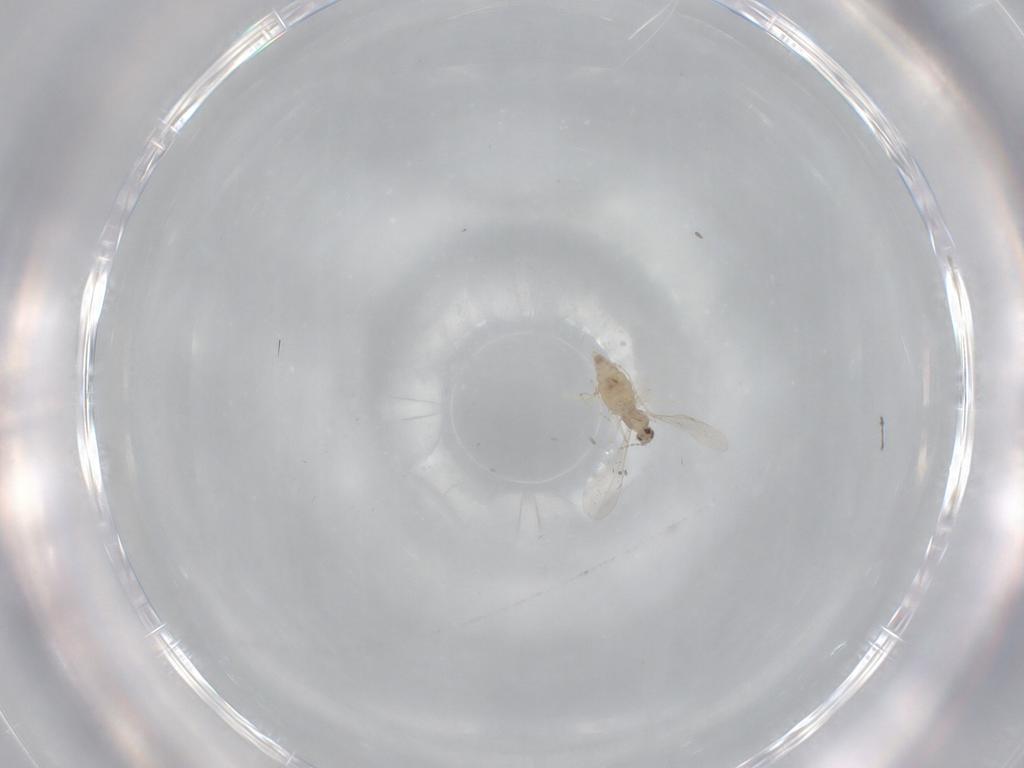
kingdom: Animalia
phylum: Arthropoda
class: Insecta
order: Diptera
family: Cecidomyiidae
